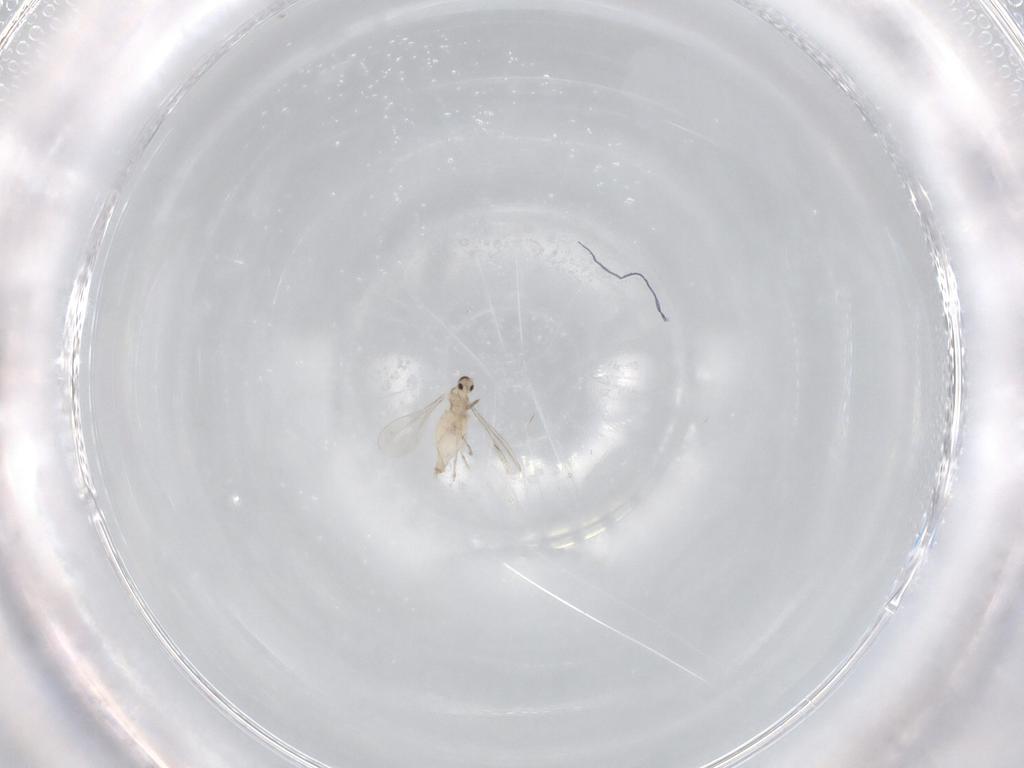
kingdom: Animalia
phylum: Arthropoda
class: Insecta
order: Diptera
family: Cecidomyiidae
